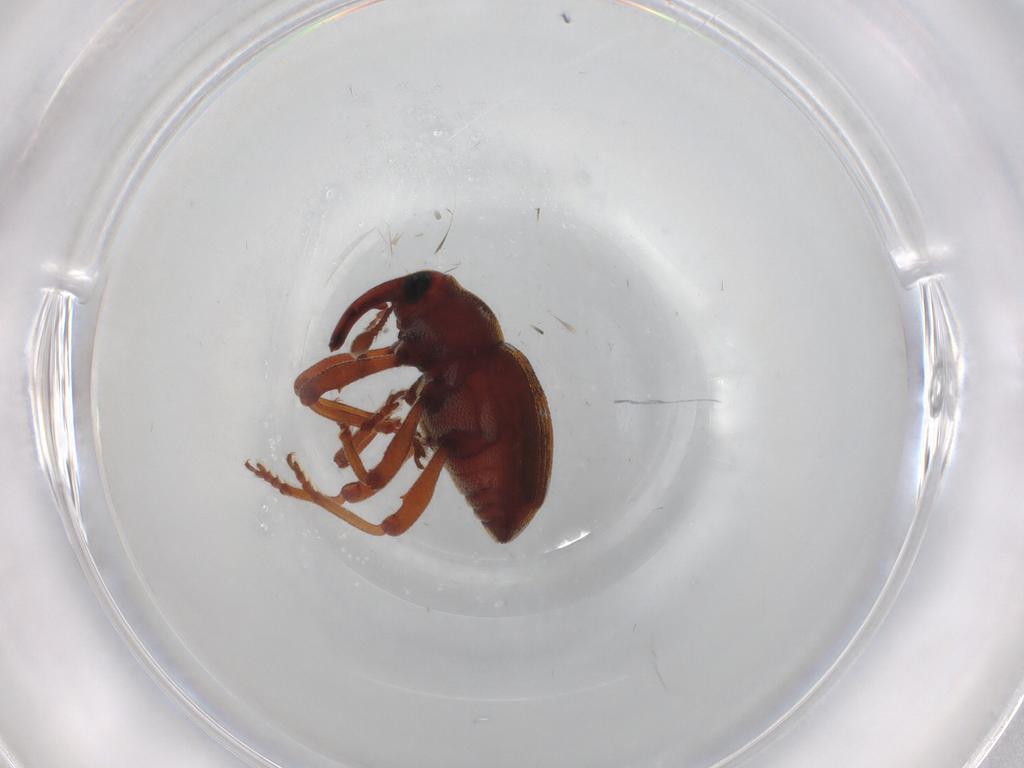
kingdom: Animalia
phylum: Arthropoda
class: Insecta
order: Coleoptera
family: Curculionidae
